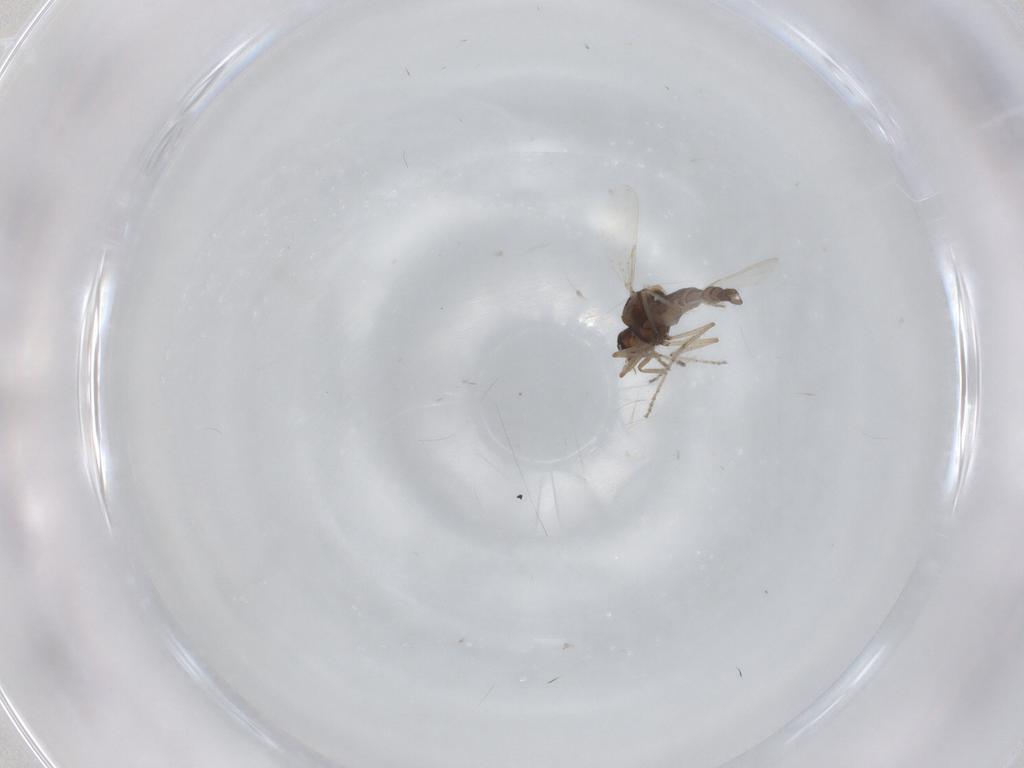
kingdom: Animalia
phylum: Arthropoda
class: Insecta
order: Diptera
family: Ceratopogonidae
